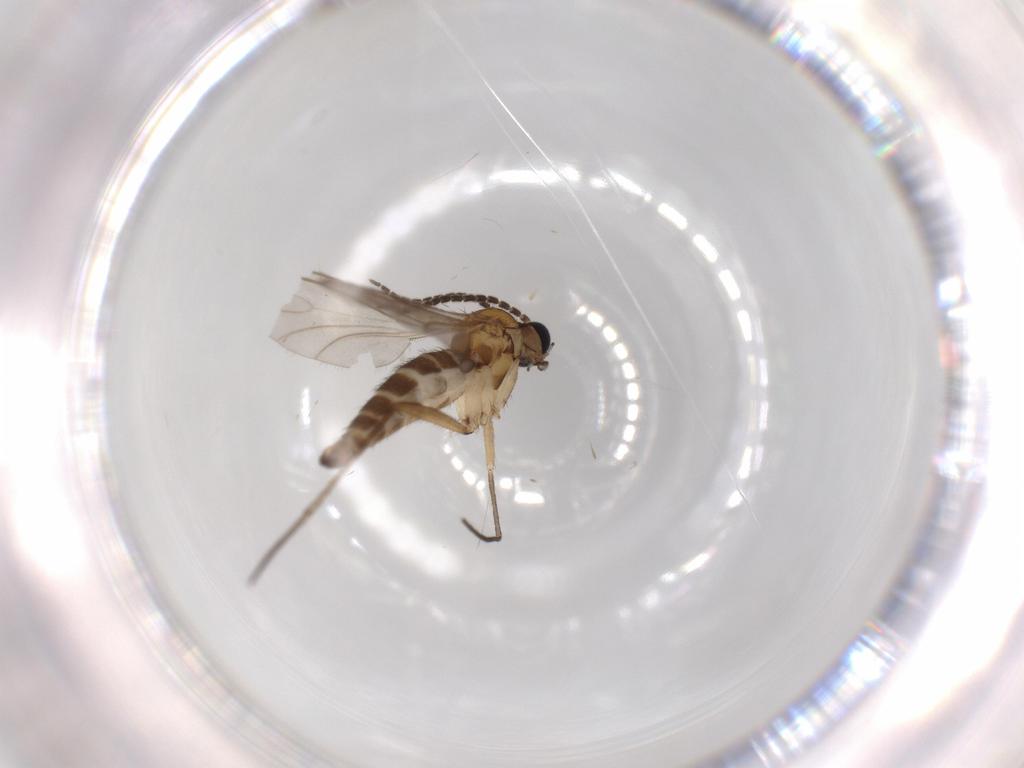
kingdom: Animalia
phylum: Arthropoda
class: Insecta
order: Diptera
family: Sciaridae
